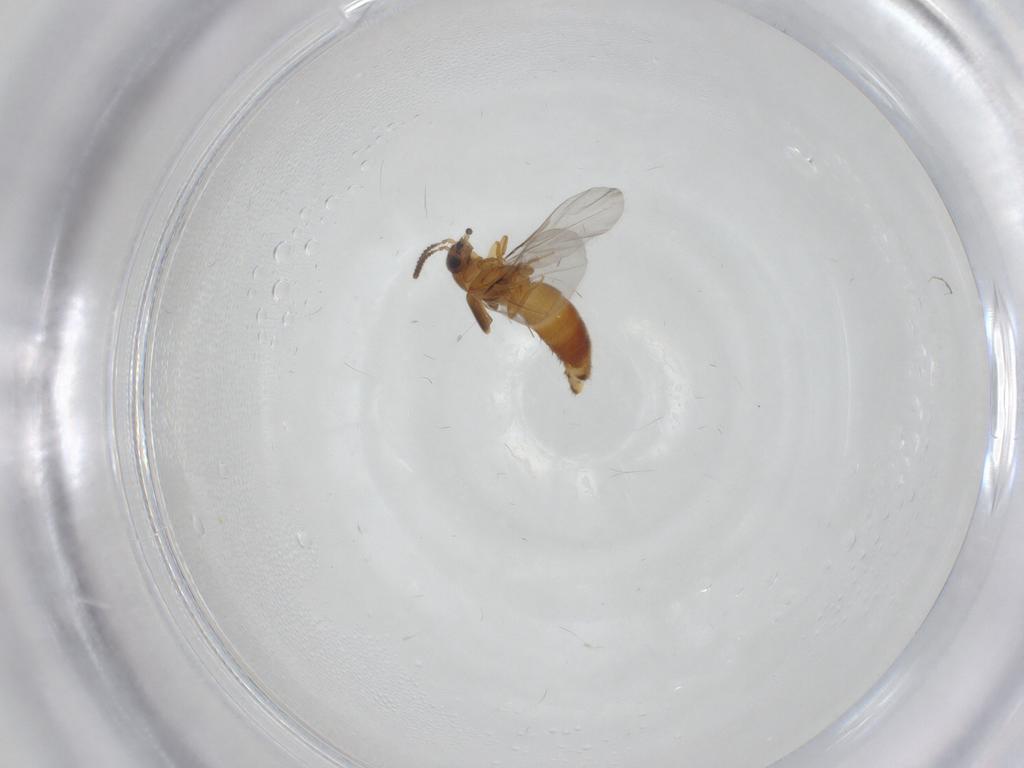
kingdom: Animalia
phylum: Arthropoda
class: Insecta
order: Coleoptera
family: Staphylinidae
